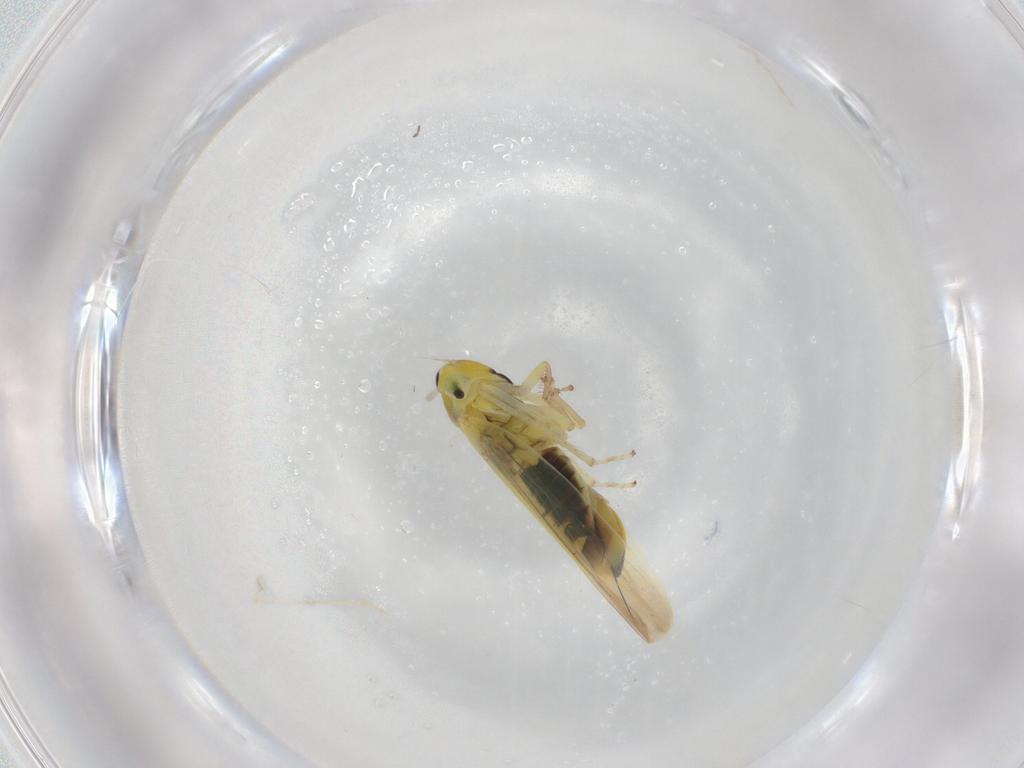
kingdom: Animalia
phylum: Arthropoda
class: Insecta
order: Hemiptera
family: Cicadellidae
